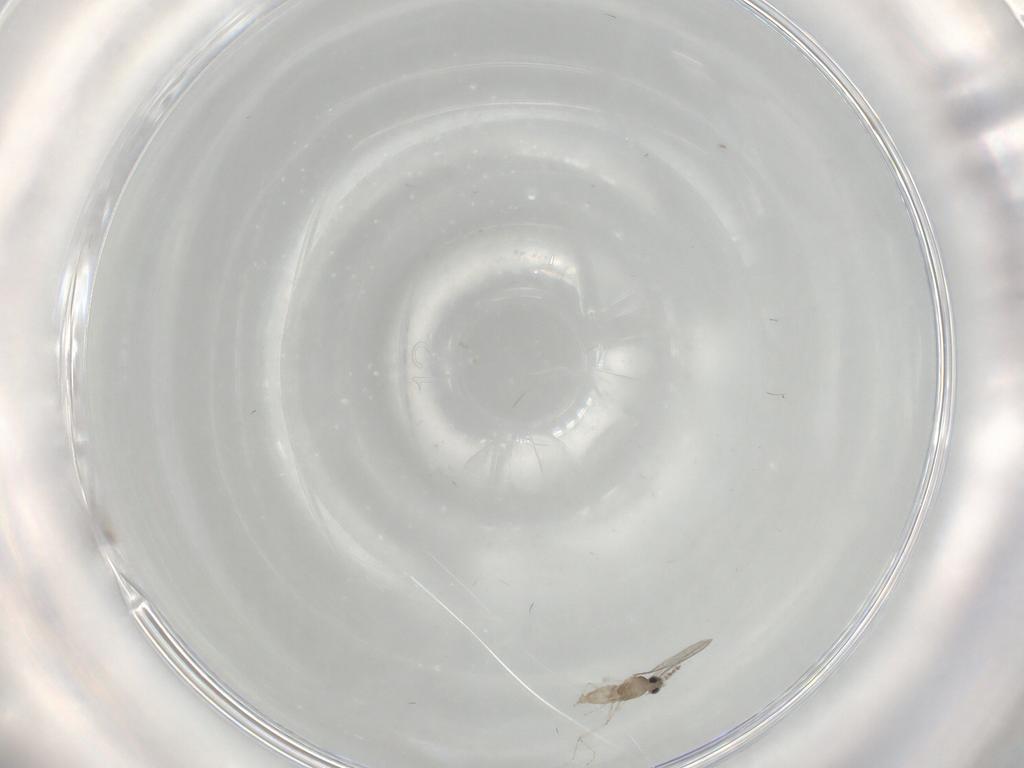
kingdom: Animalia
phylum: Arthropoda
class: Insecta
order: Diptera
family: Cecidomyiidae
